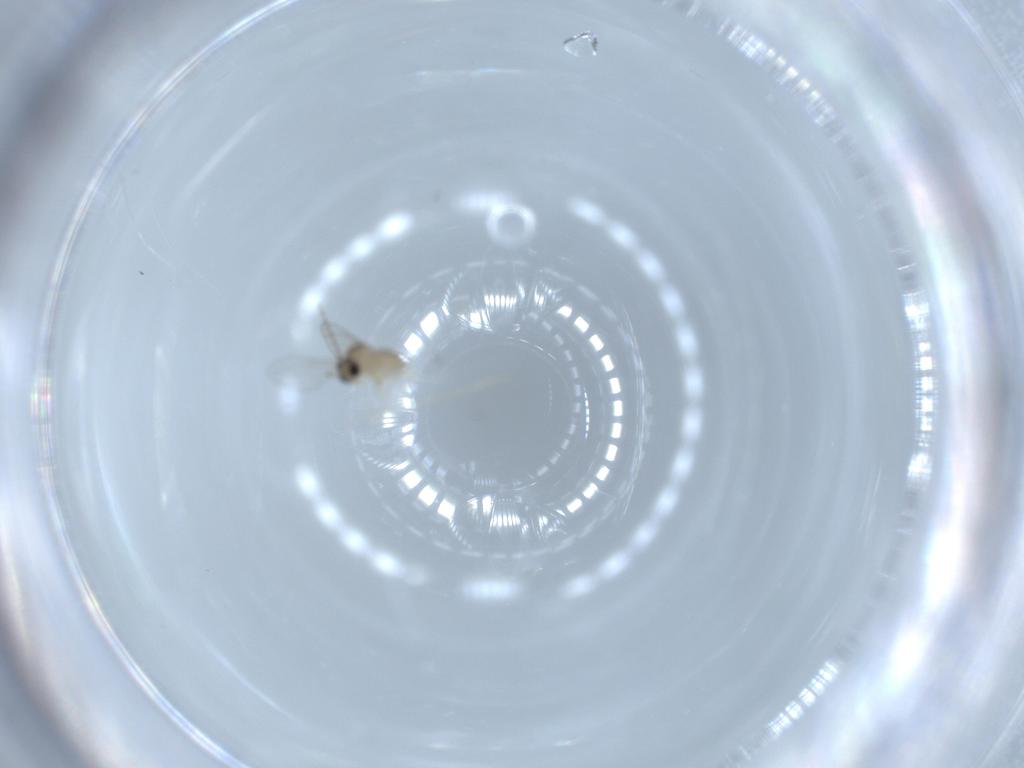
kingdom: Animalia
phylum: Arthropoda
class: Insecta
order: Diptera
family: Cecidomyiidae
